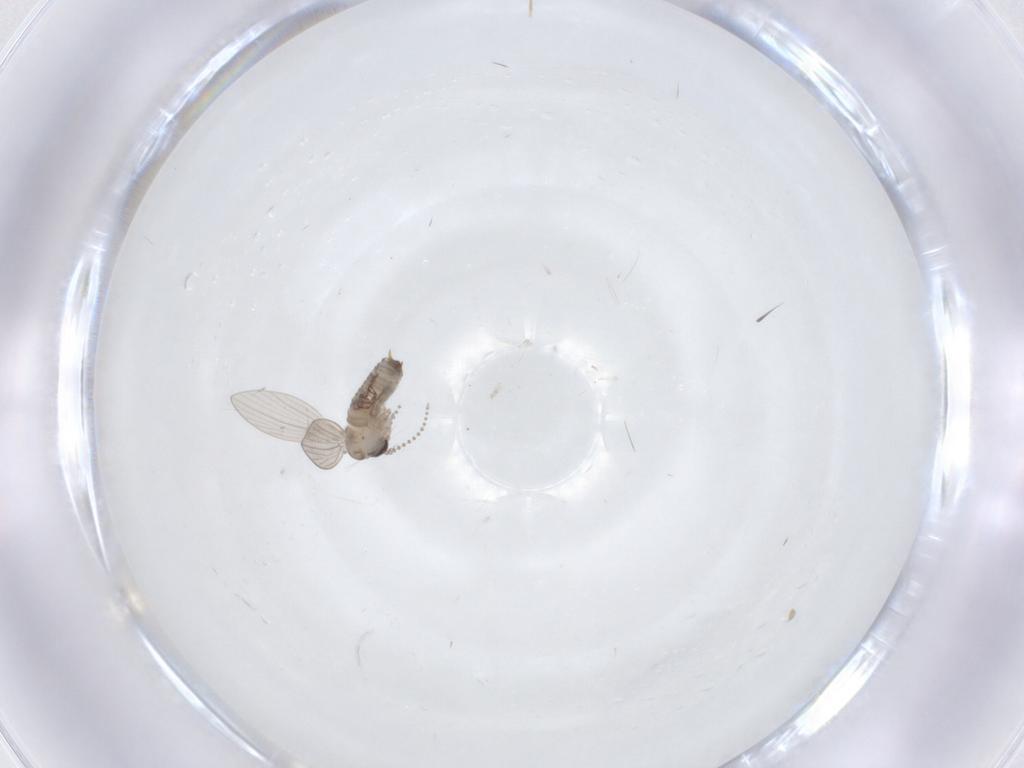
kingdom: Animalia
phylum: Arthropoda
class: Insecta
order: Diptera
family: Psychodidae
